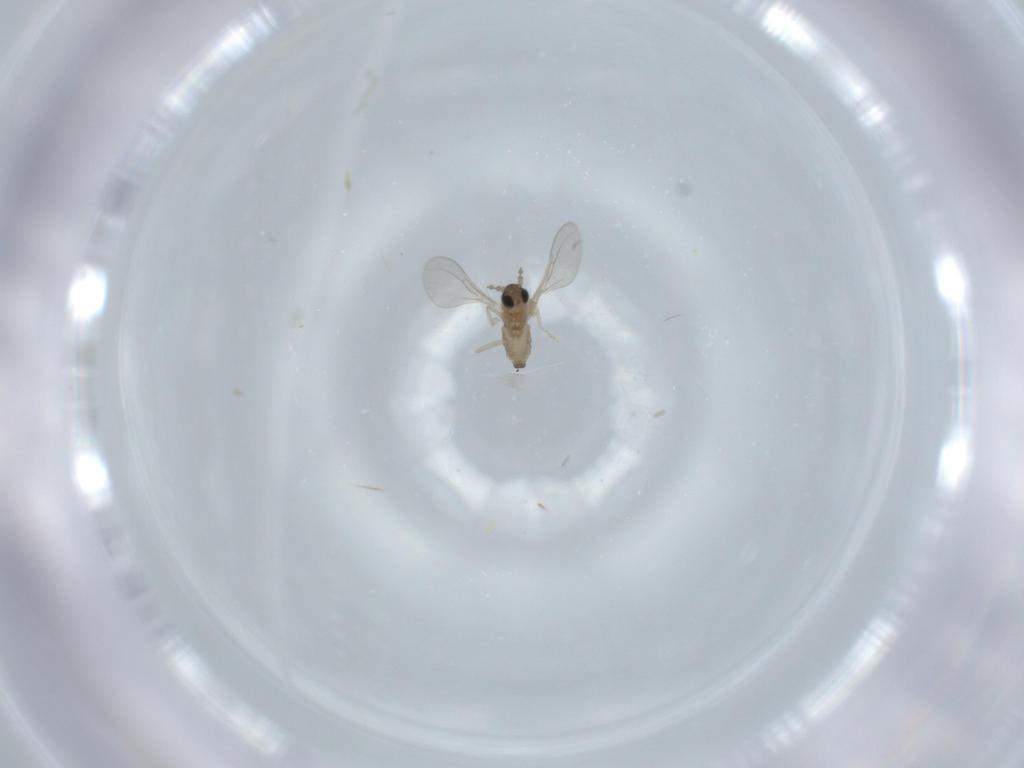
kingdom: Animalia
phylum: Arthropoda
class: Insecta
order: Diptera
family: Cecidomyiidae
